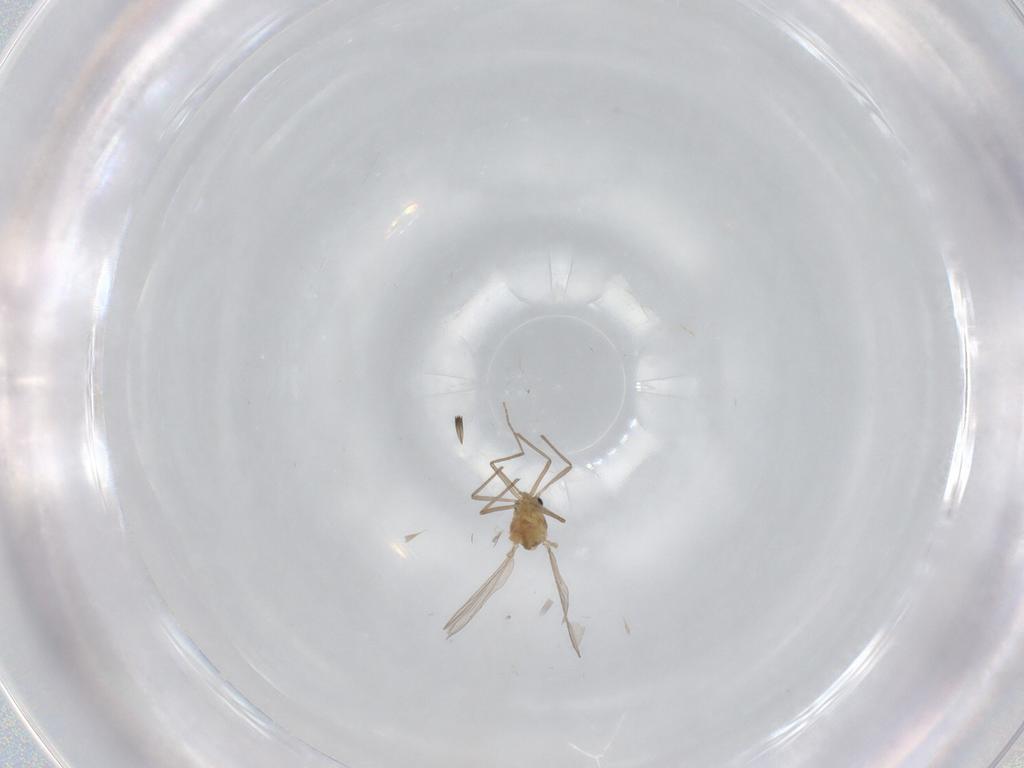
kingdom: Animalia
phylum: Arthropoda
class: Insecta
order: Diptera
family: Chironomidae
